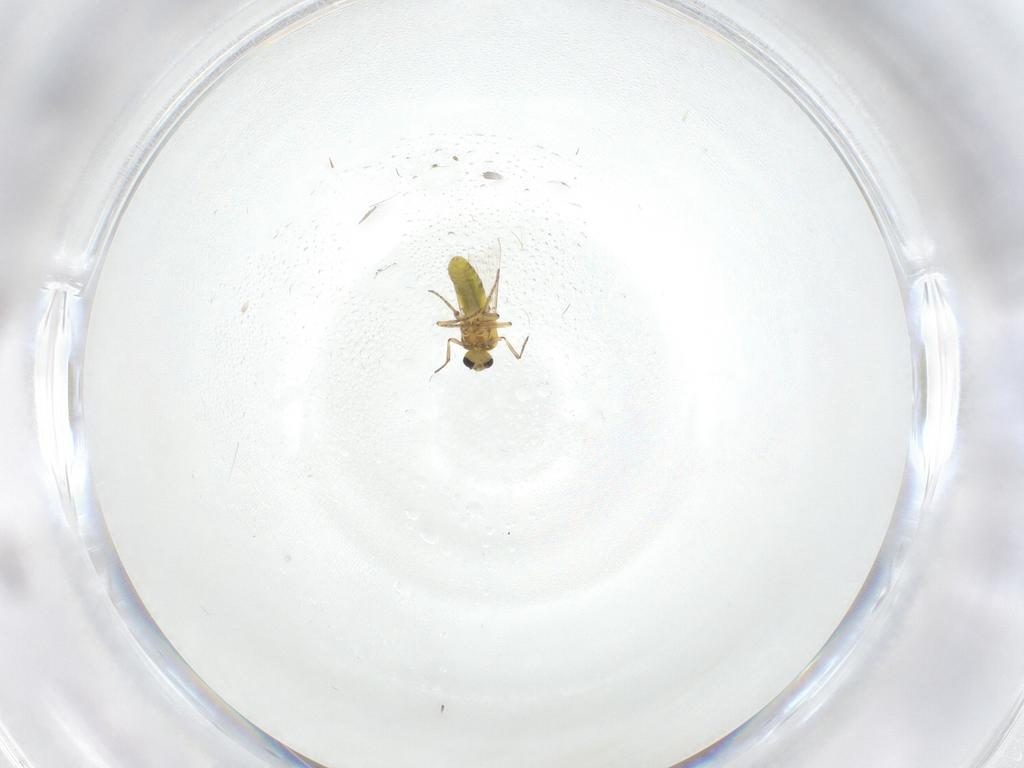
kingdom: Animalia
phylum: Arthropoda
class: Insecta
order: Diptera
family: Ceratopogonidae
